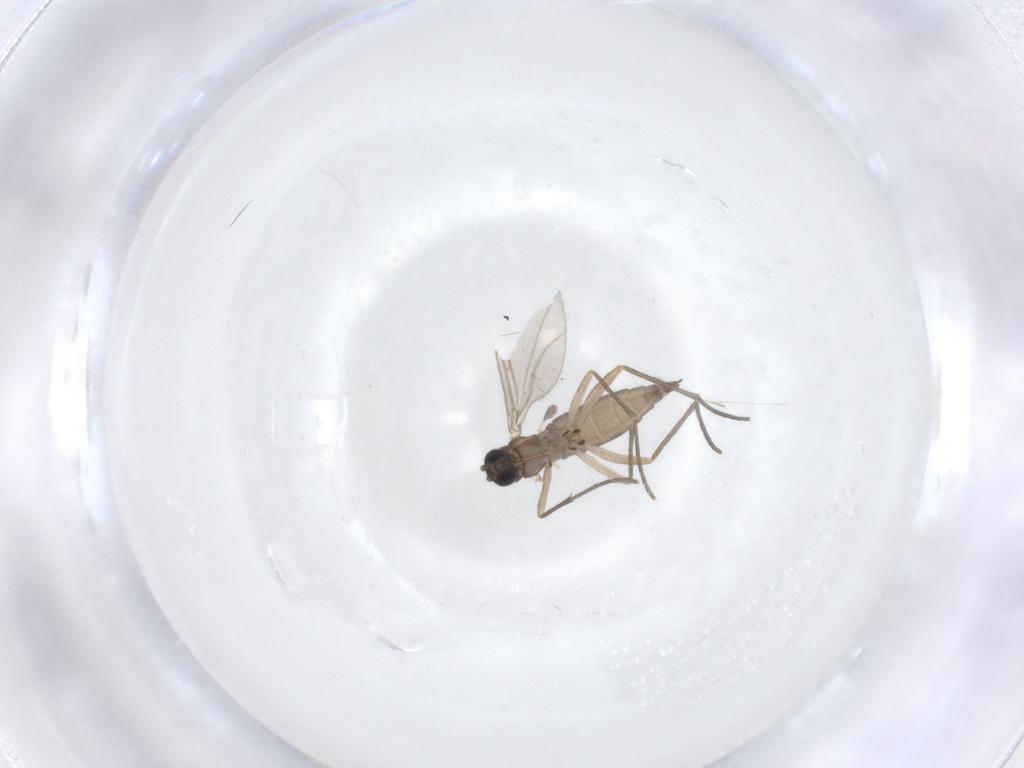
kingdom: Animalia
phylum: Arthropoda
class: Insecta
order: Diptera
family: Sciaridae
